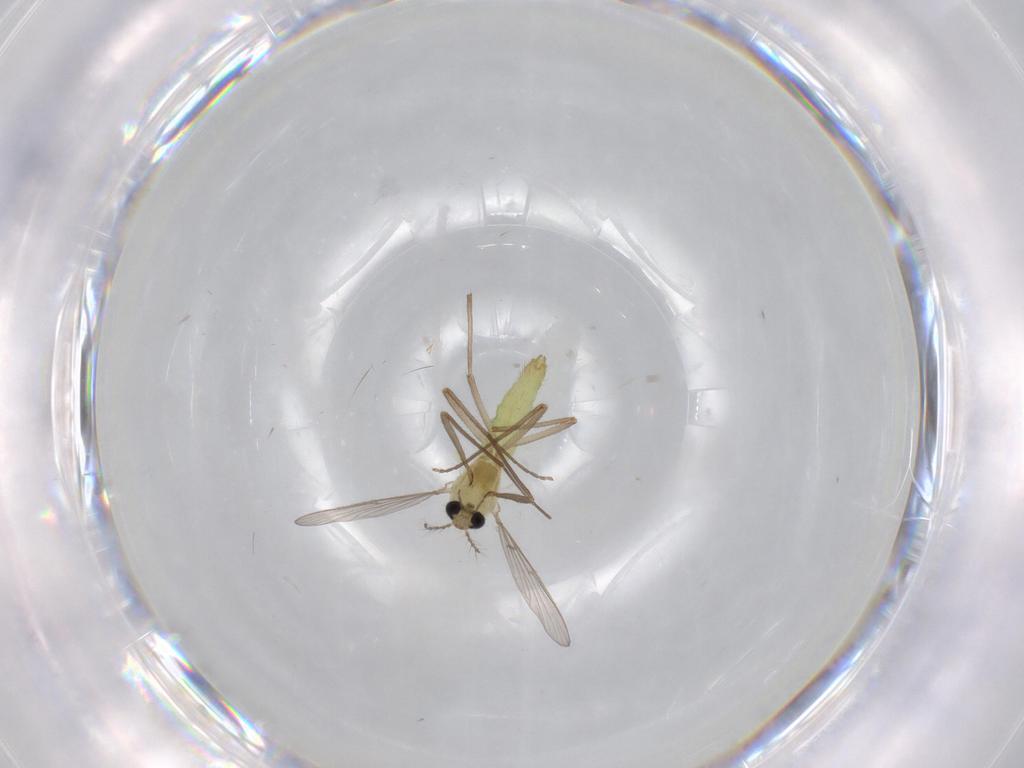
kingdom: Animalia
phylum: Arthropoda
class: Insecta
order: Diptera
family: Chironomidae
